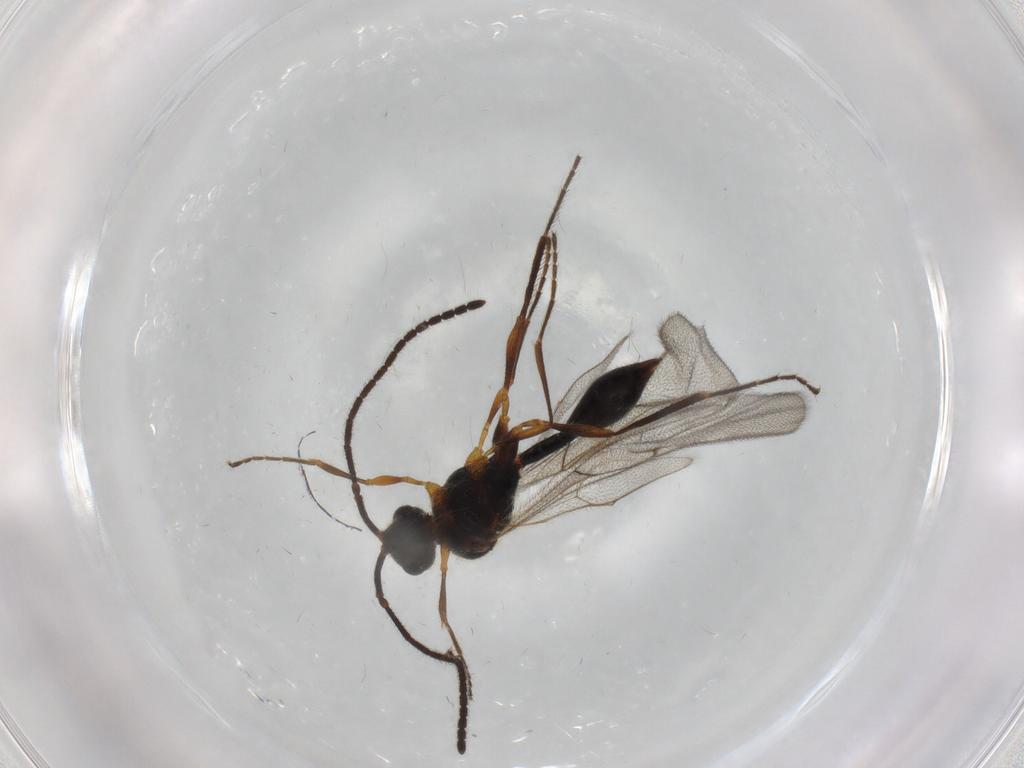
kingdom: Animalia
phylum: Arthropoda
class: Insecta
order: Hymenoptera
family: Diapriidae
